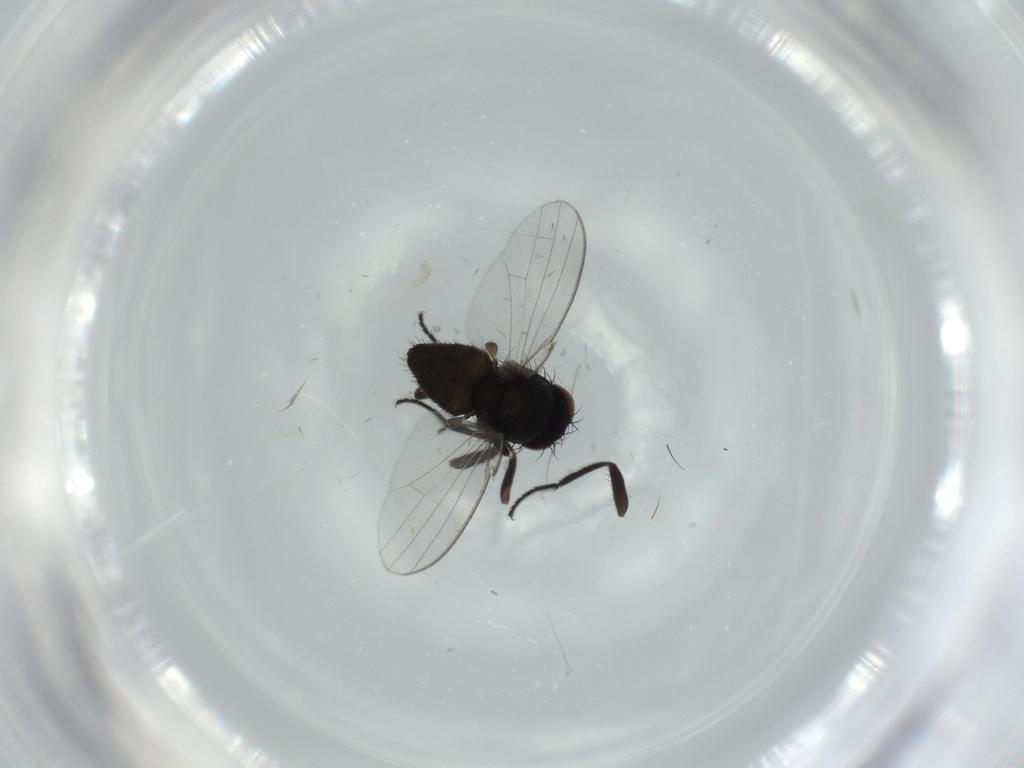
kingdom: Animalia
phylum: Arthropoda
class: Insecta
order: Diptera
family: Milichiidae
